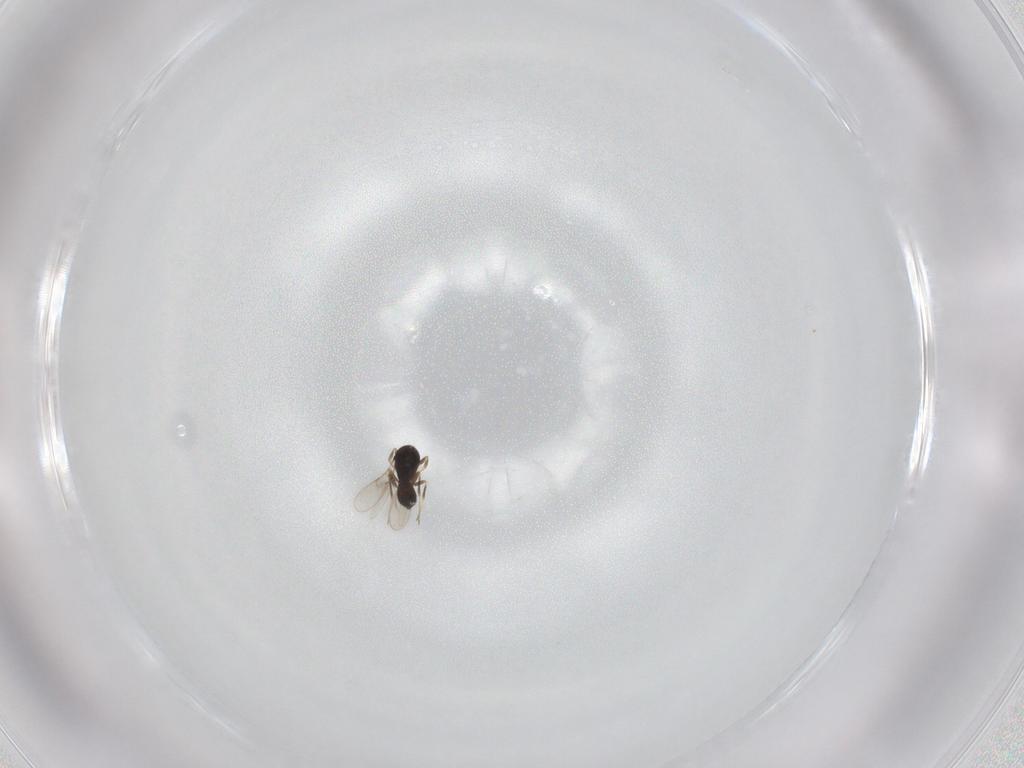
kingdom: Animalia
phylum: Arthropoda
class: Insecta
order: Hymenoptera
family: Scelionidae
